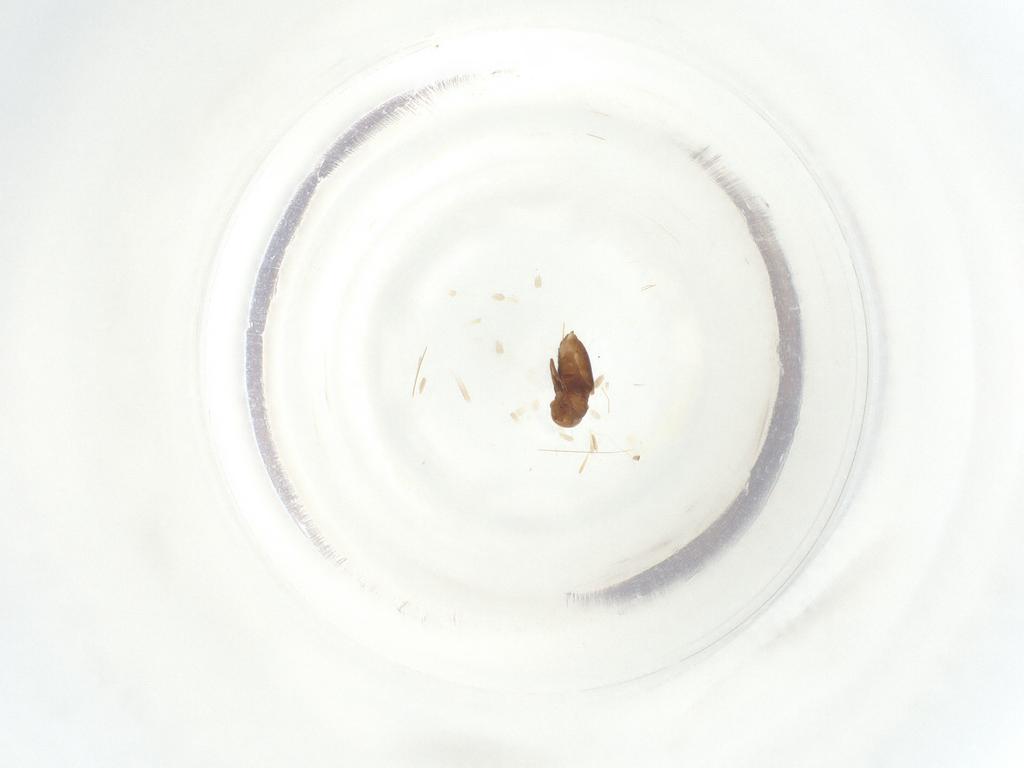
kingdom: Animalia
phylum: Arthropoda
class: Insecta
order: Hymenoptera
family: Signiphoridae
